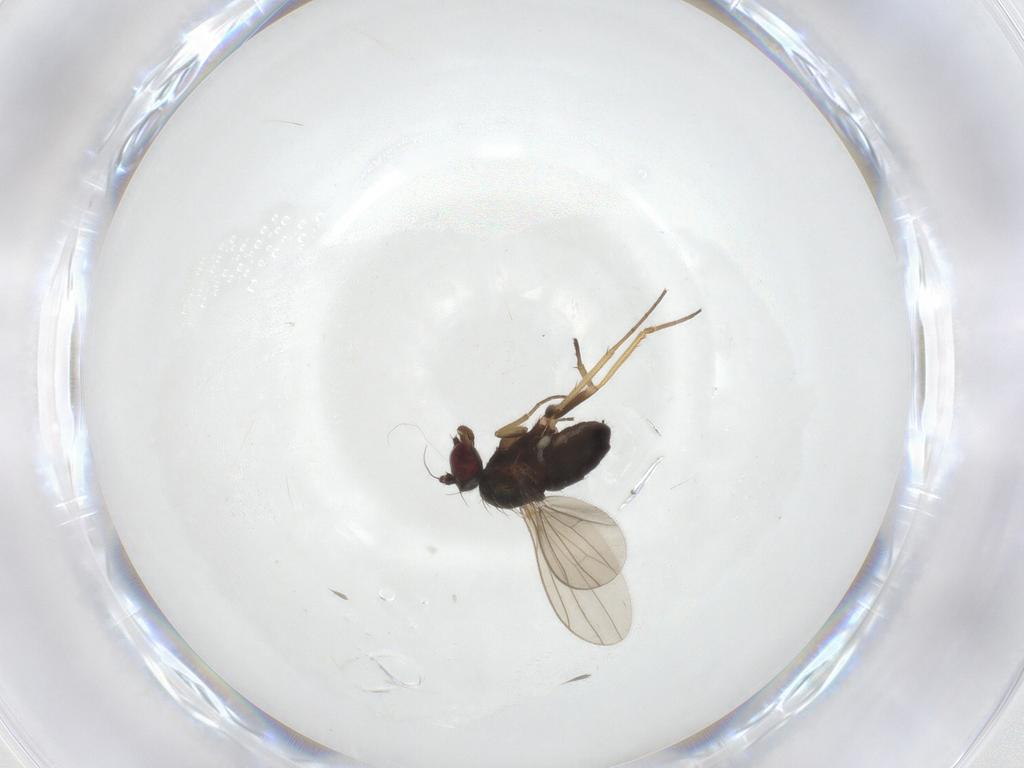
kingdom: Animalia
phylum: Arthropoda
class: Insecta
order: Diptera
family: Dolichopodidae
